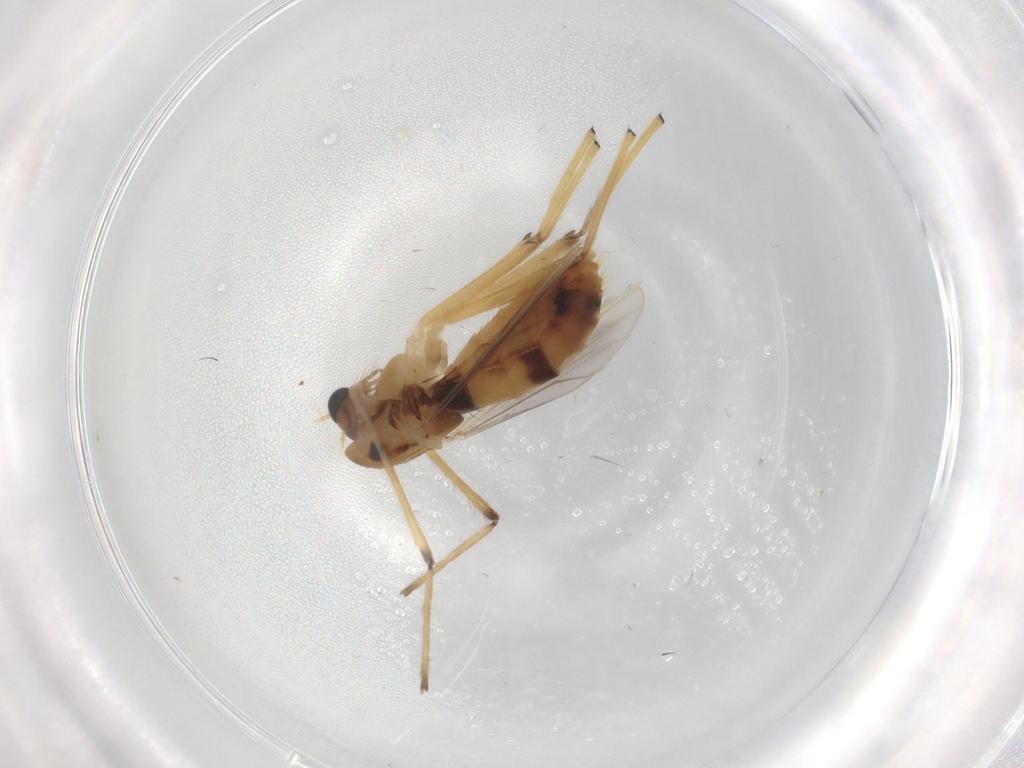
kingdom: Animalia
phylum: Arthropoda
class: Insecta
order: Diptera
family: Chironomidae
